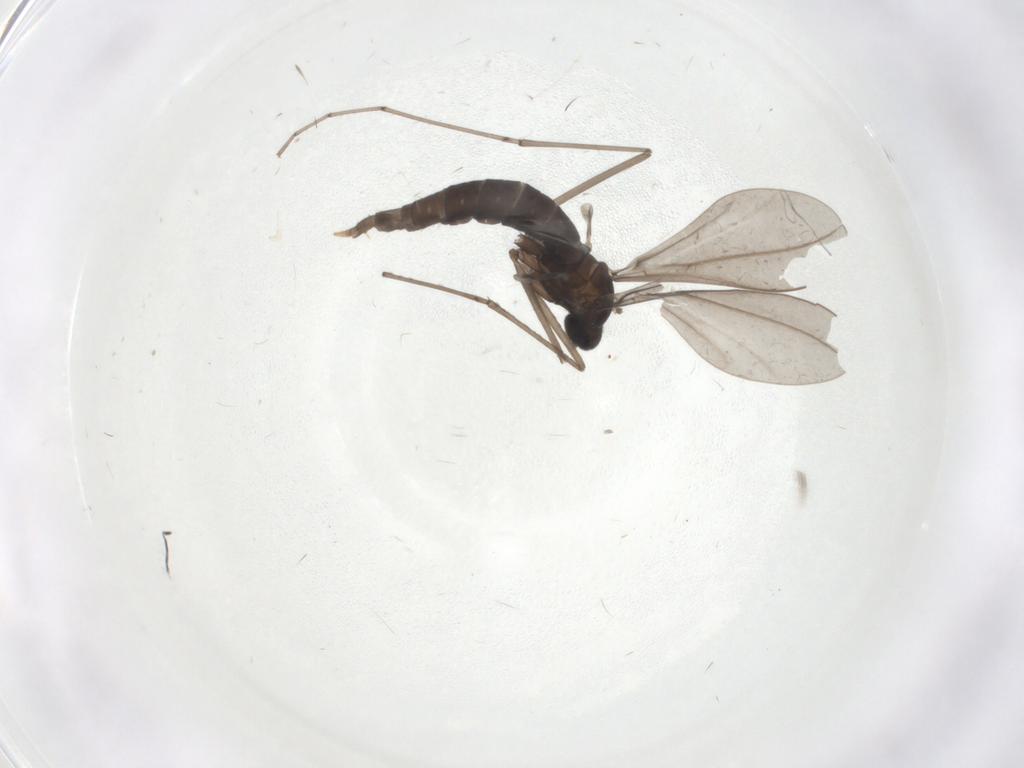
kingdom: Animalia
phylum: Arthropoda
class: Insecta
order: Diptera
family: Cecidomyiidae
